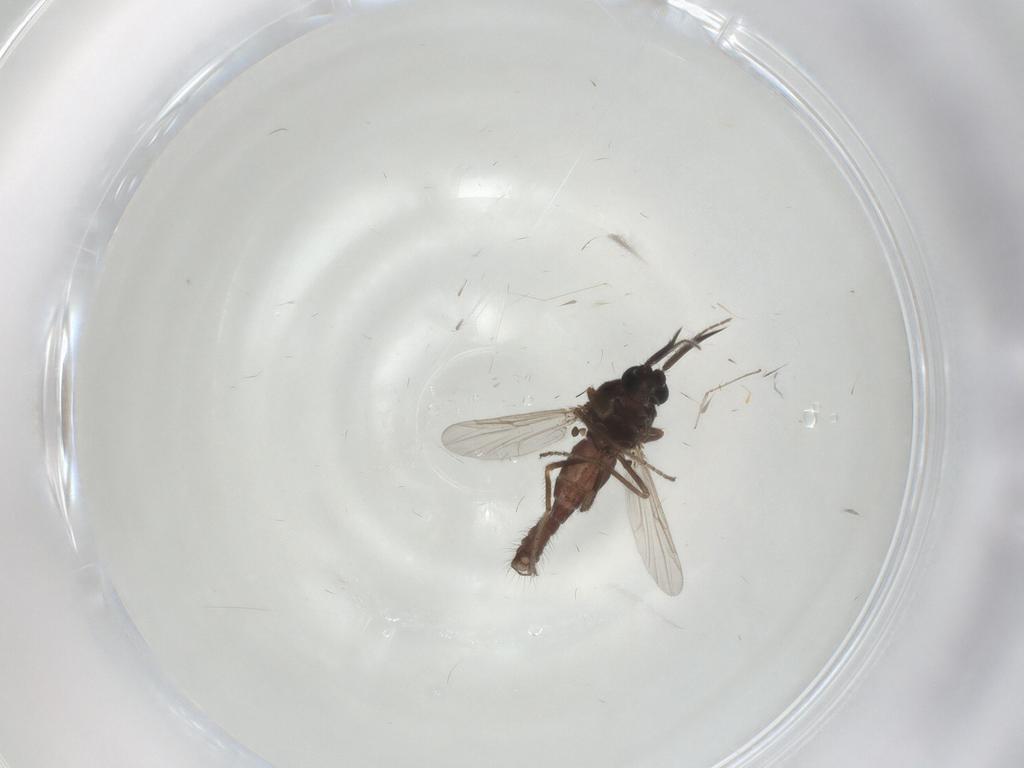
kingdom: Animalia
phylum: Arthropoda
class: Insecta
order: Diptera
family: Ceratopogonidae
